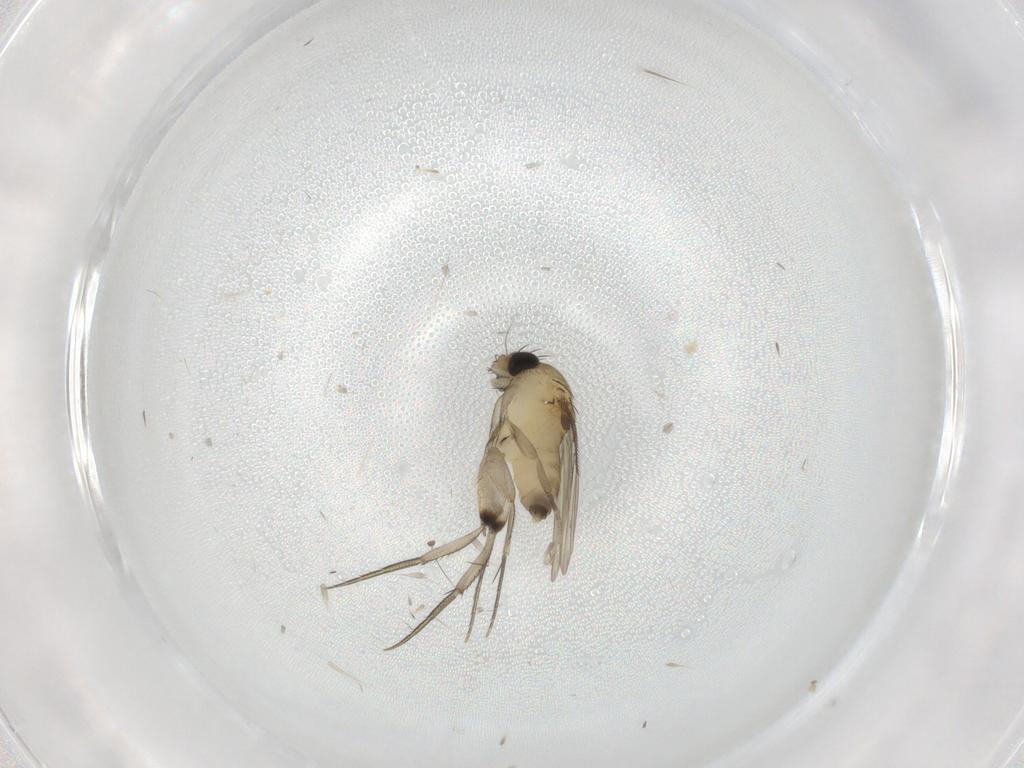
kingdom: Animalia
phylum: Arthropoda
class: Insecta
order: Diptera
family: Phoridae
